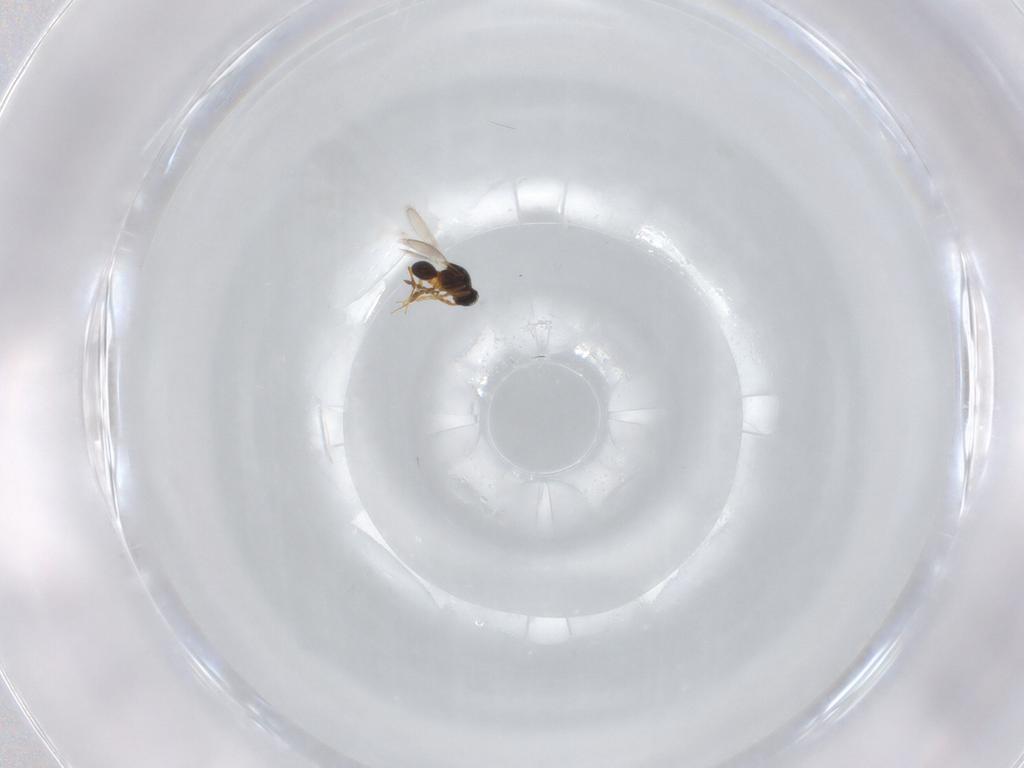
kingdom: Animalia
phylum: Arthropoda
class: Insecta
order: Hymenoptera
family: Platygastridae
